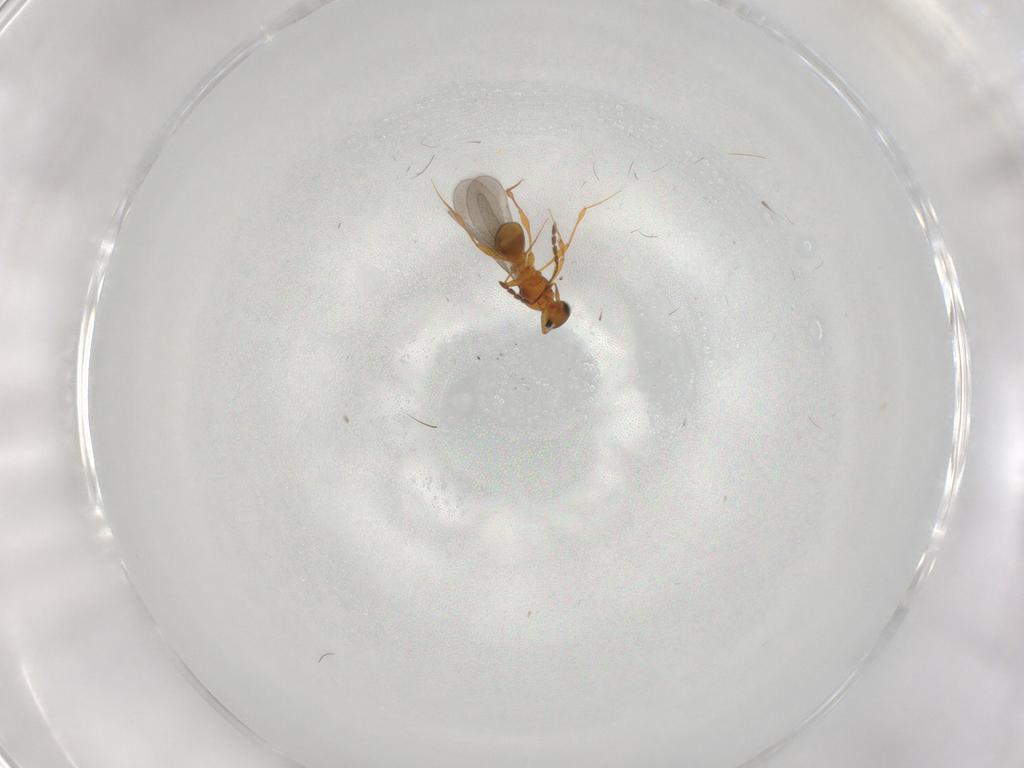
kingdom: Animalia
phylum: Arthropoda
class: Insecta
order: Hymenoptera
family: Platygastridae
